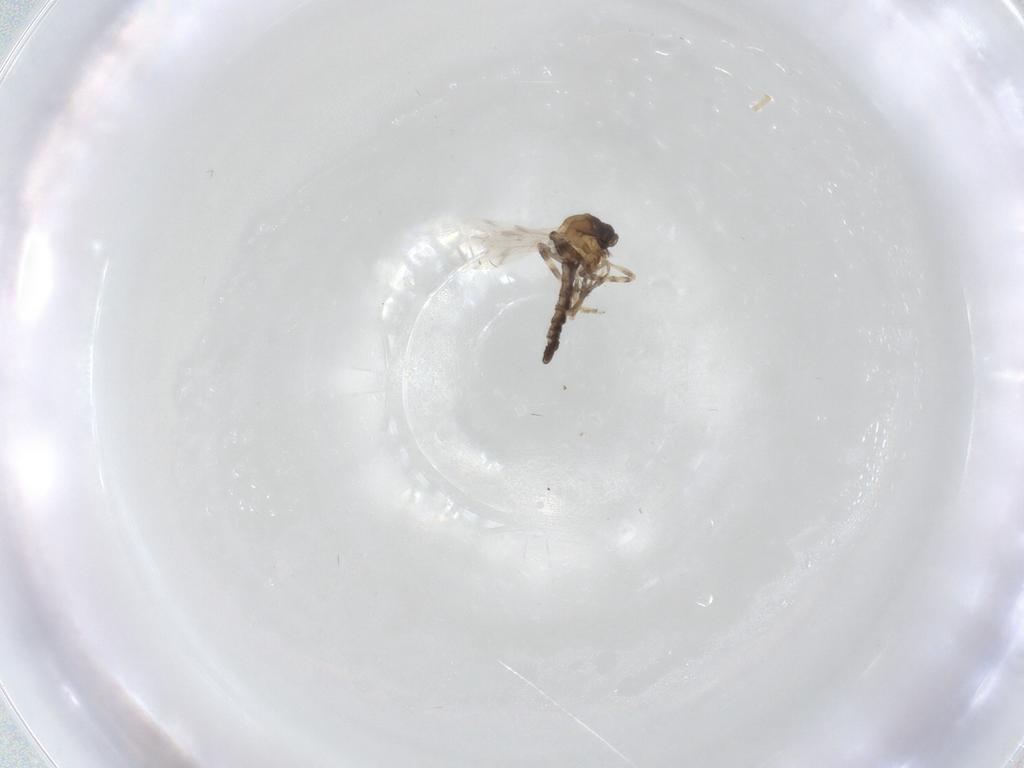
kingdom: Animalia
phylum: Arthropoda
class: Insecta
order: Diptera
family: Ceratopogonidae
